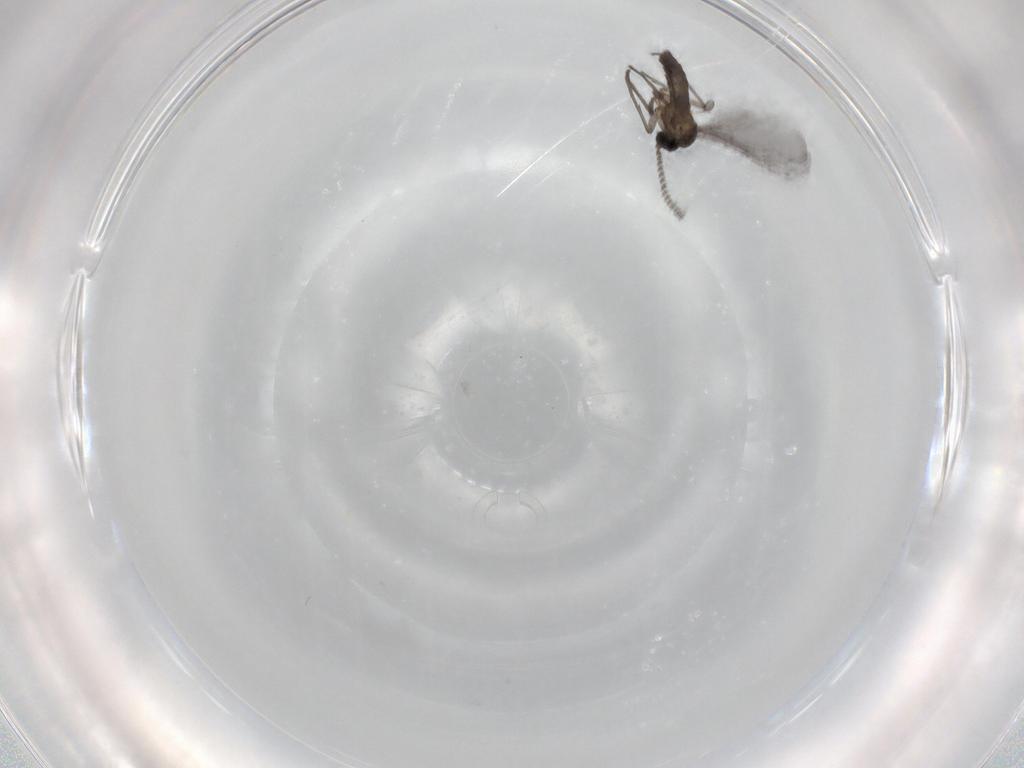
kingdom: Animalia
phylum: Arthropoda
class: Insecta
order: Diptera
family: Sciaridae
